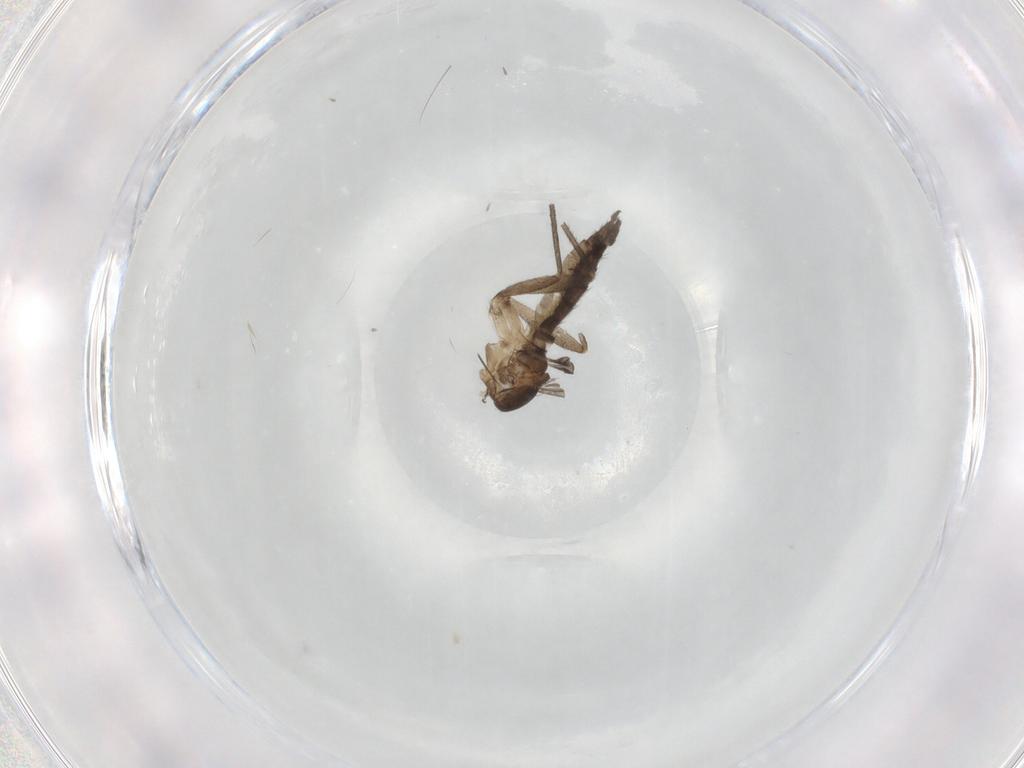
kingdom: Animalia
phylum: Arthropoda
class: Insecta
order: Diptera
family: Sciaridae
